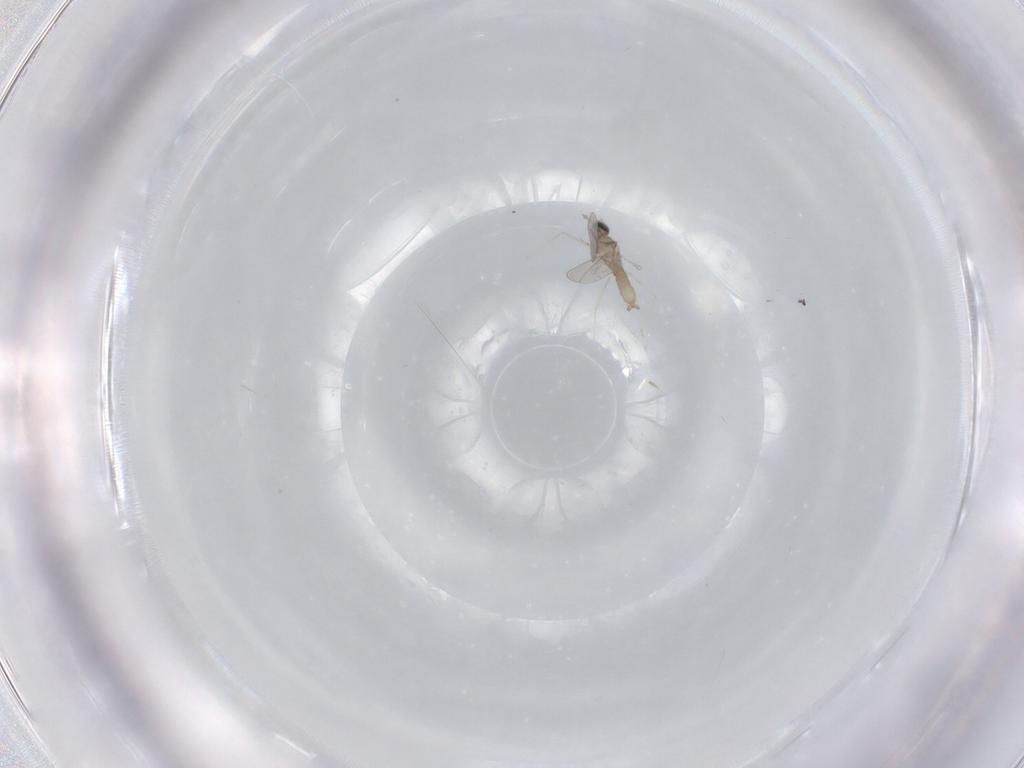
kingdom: Animalia
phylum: Arthropoda
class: Insecta
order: Diptera
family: Cecidomyiidae
